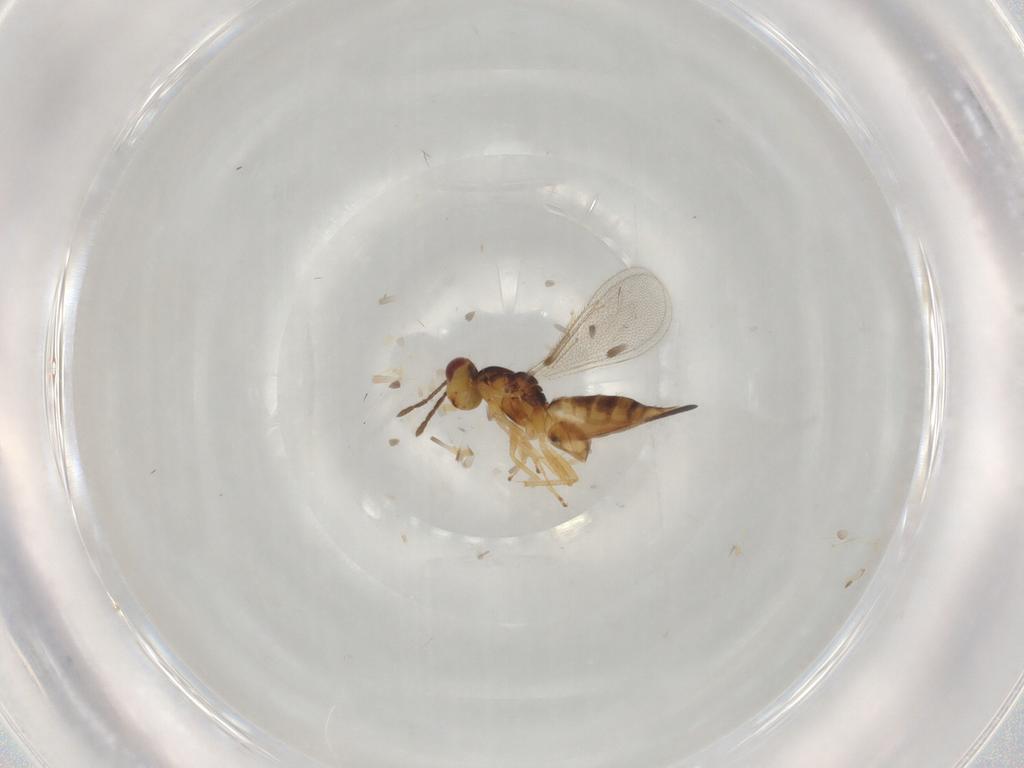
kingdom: Animalia
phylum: Arthropoda
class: Insecta
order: Hymenoptera
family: Eulophidae
